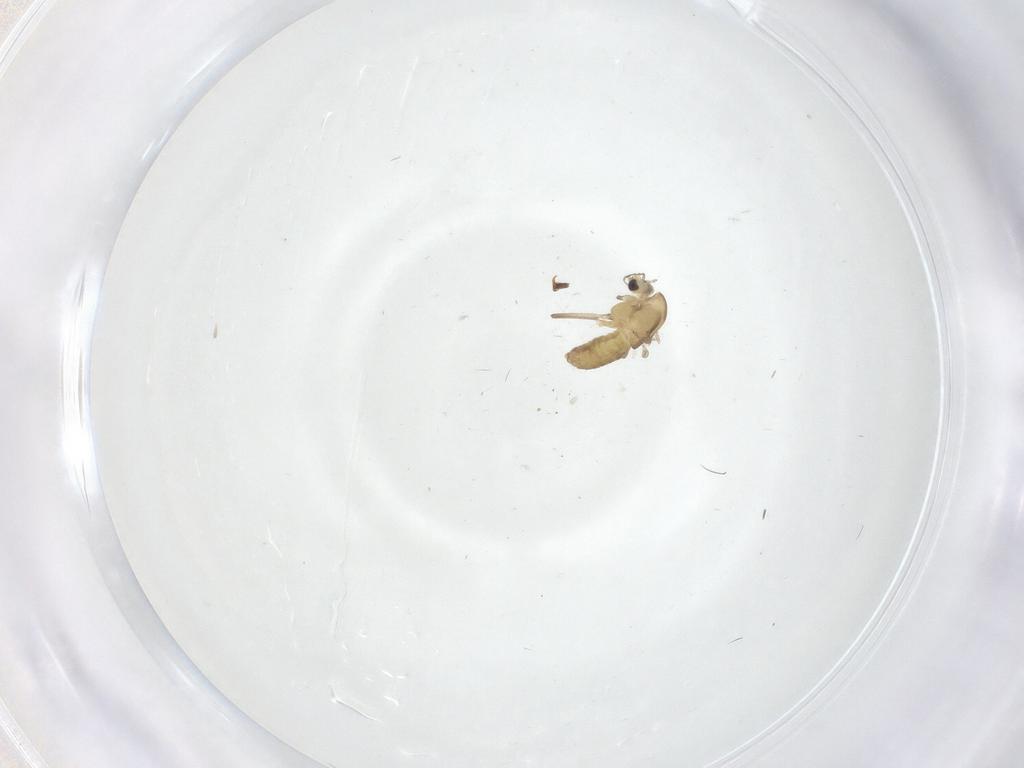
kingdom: Animalia
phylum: Arthropoda
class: Insecta
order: Diptera
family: Chironomidae
